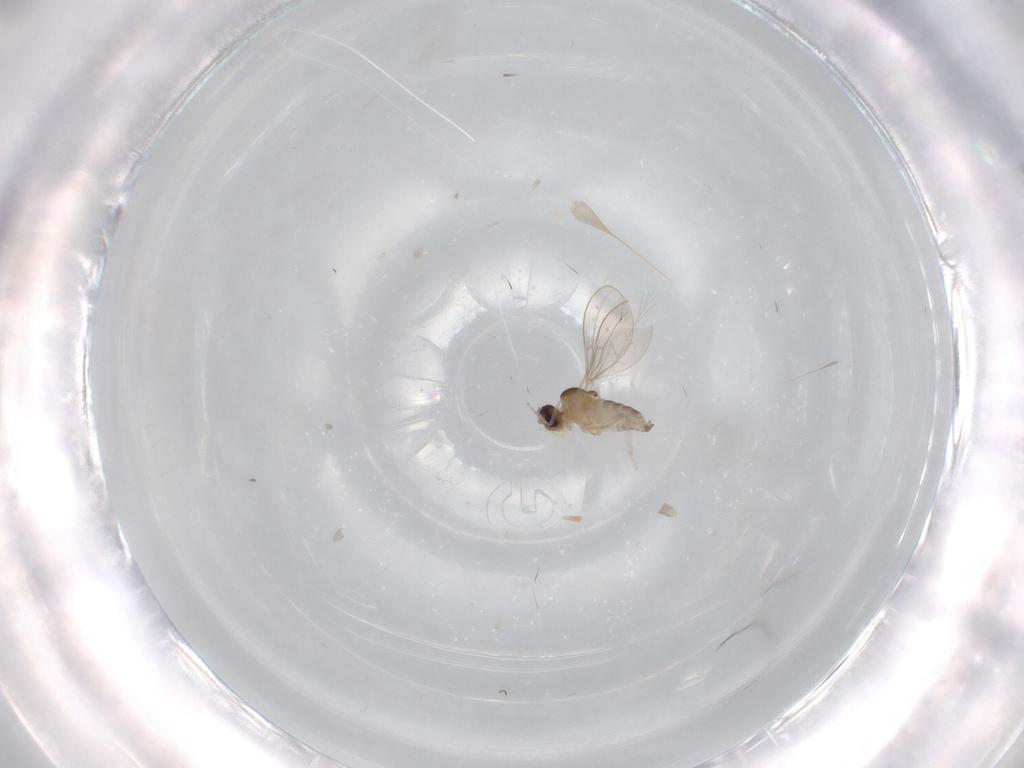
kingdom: Animalia
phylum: Arthropoda
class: Insecta
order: Diptera
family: Cecidomyiidae
